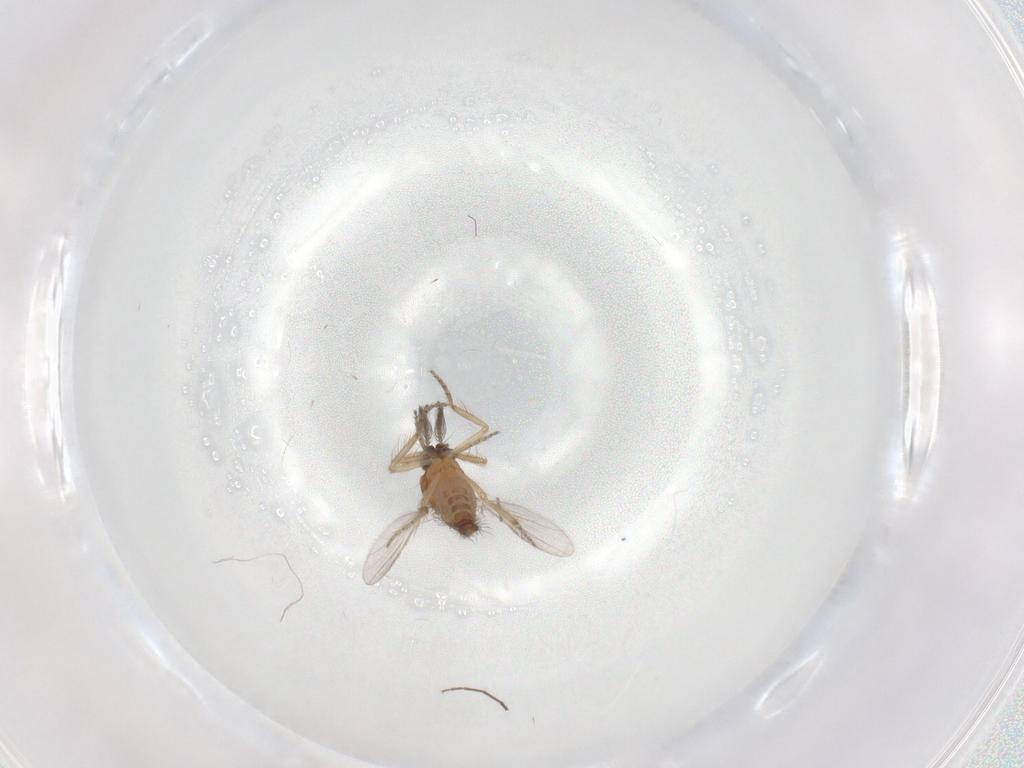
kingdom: Animalia
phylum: Arthropoda
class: Insecta
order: Diptera
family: Ceratopogonidae
